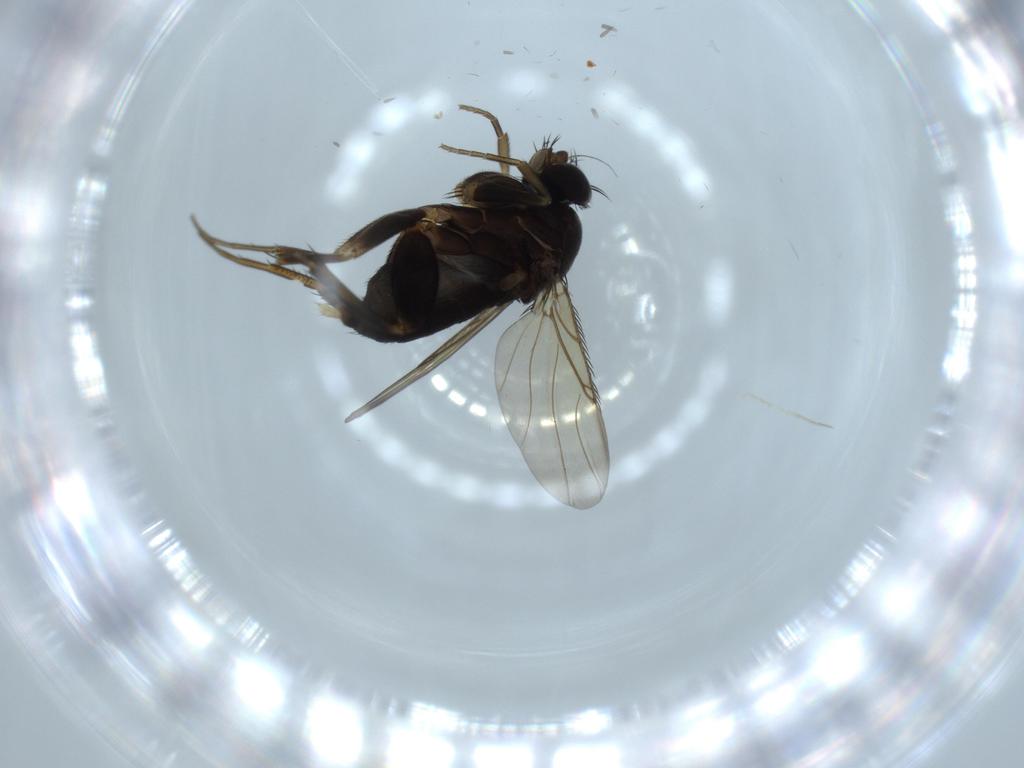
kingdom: Animalia
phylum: Arthropoda
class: Insecta
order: Diptera
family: Phoridae
